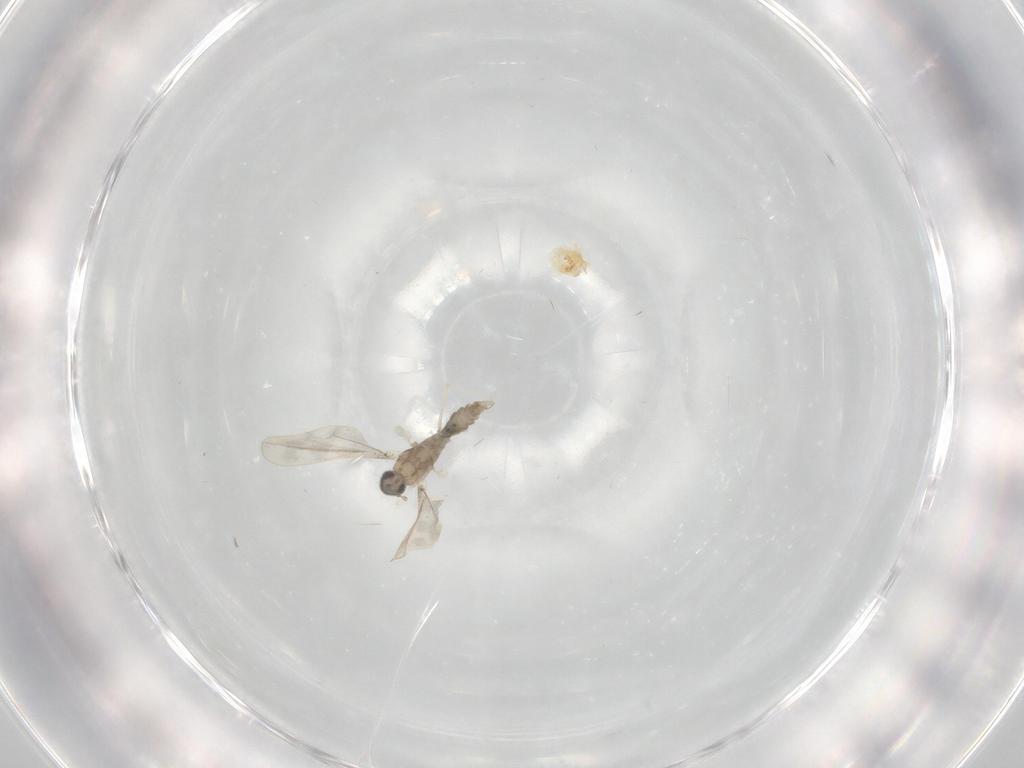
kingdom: Animalia
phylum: Arthropoda
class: Insecta
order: Diptera
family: Cecidomyiidae
